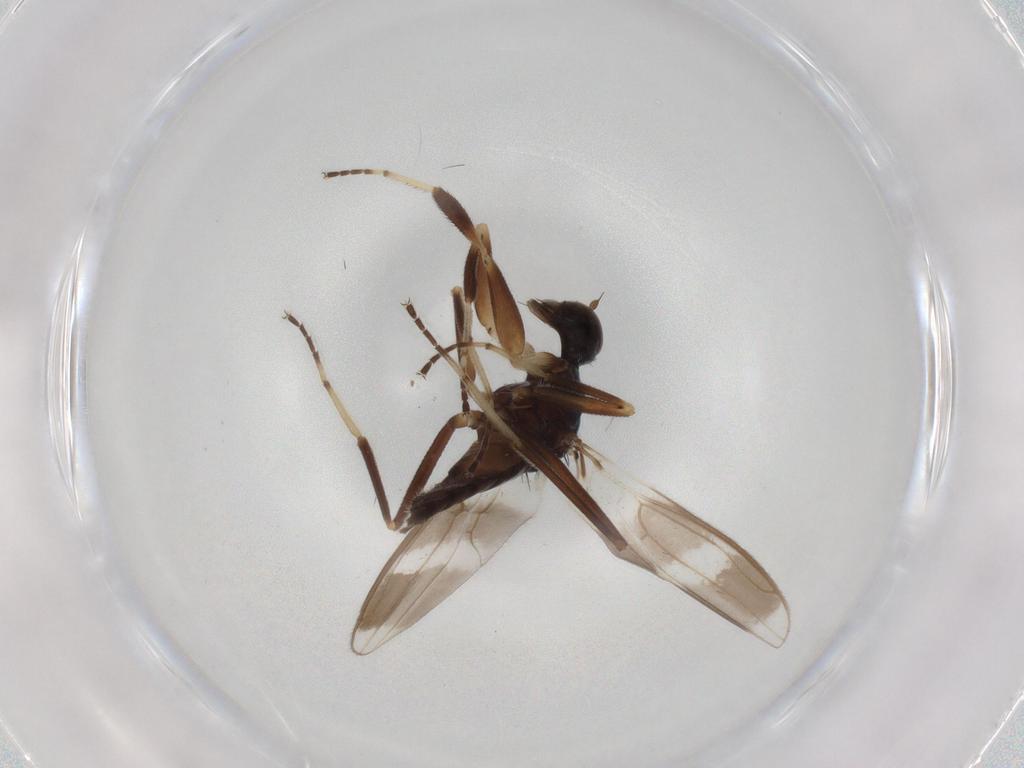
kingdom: Animalia
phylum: Arthropoda
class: Insecta
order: Diptera
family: Hybotidae
